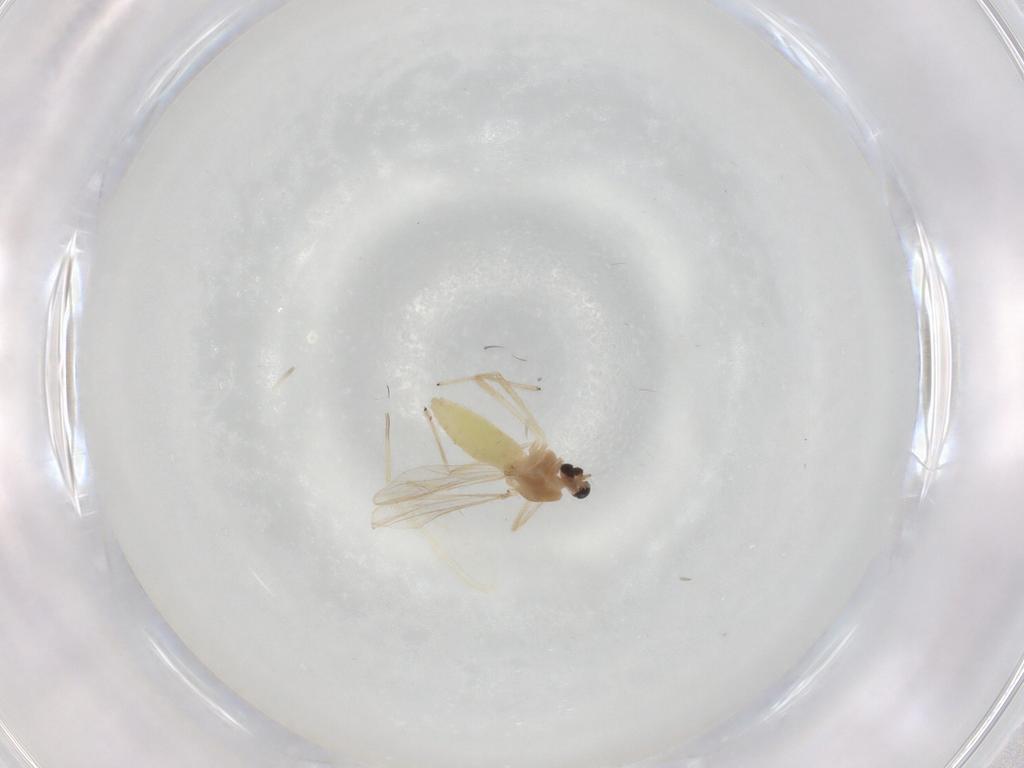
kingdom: Animalia
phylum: Arthropoda
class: Insecta
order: Diptera
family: Chironomidae
